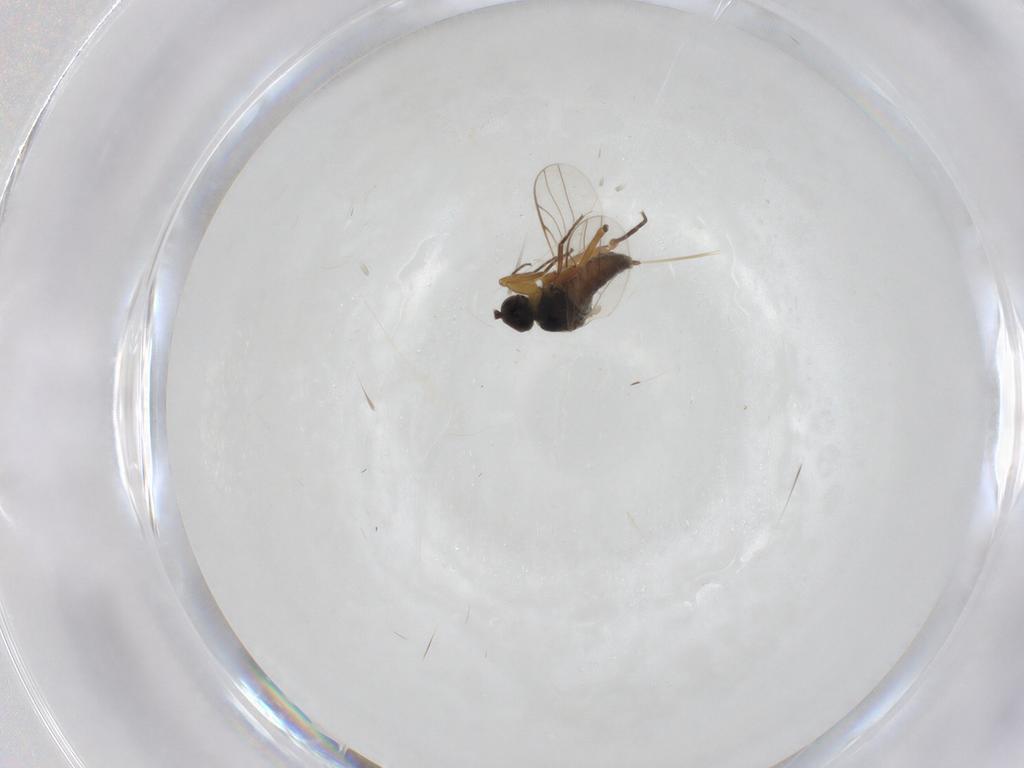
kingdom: Animalia
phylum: Arthropoda
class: Insecta
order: Diptera
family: Hybotidae
